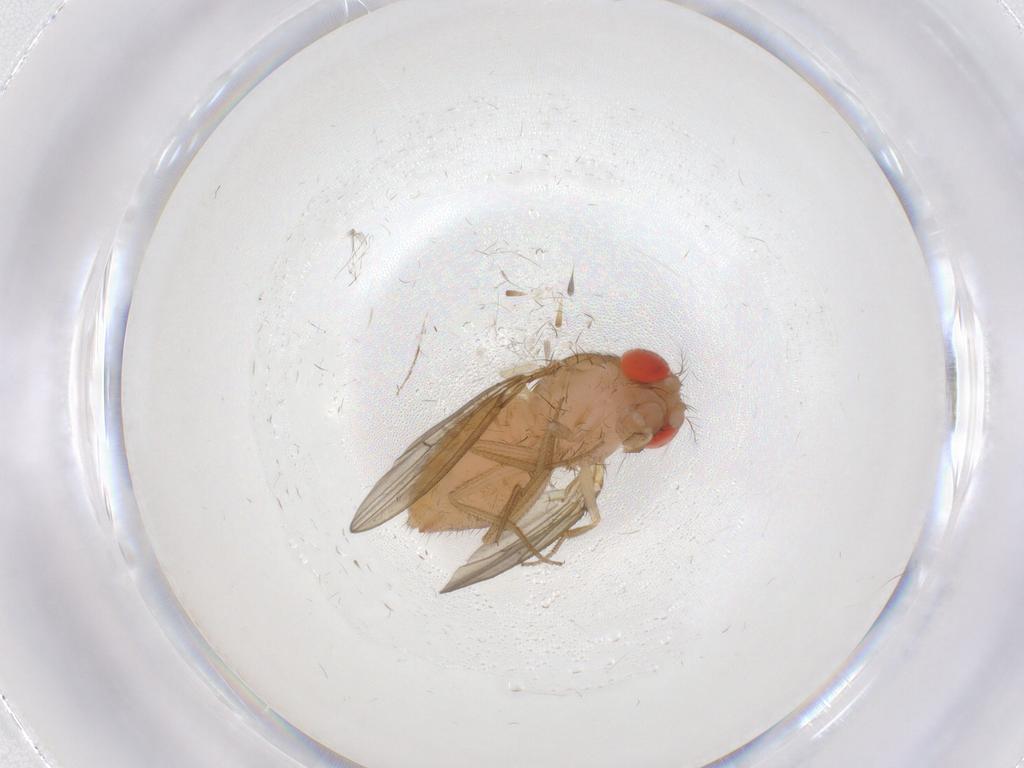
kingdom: Animalia
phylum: Arthropoda
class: Insecta
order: Diptera
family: Drosophilidae
